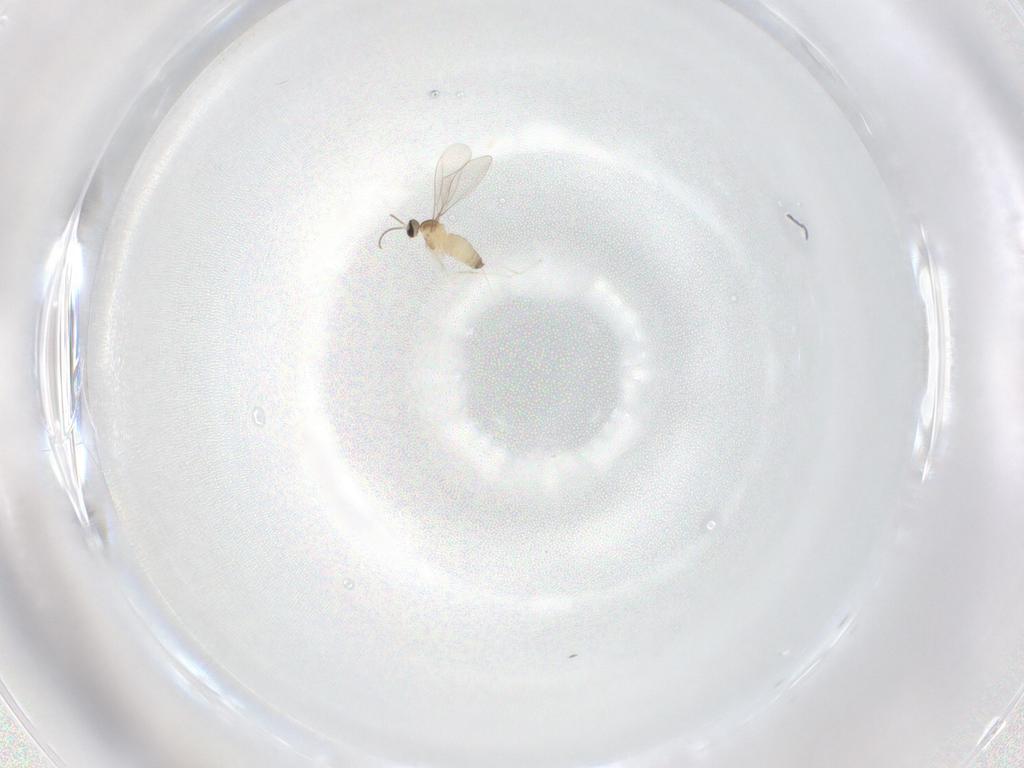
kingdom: Animalia
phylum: Arthropoda
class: Insecta
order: Diptera
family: Cecidomyiidae
